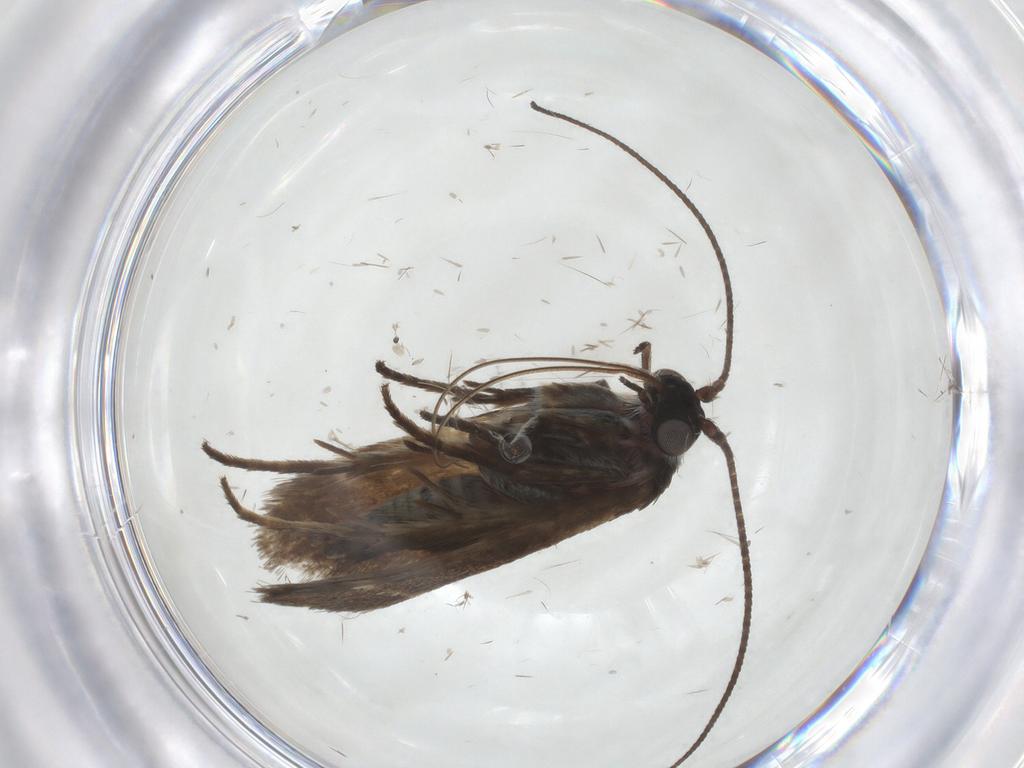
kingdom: Animalia
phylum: Arthropoda
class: Insecta
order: Lepidoptera
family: Adelidae
